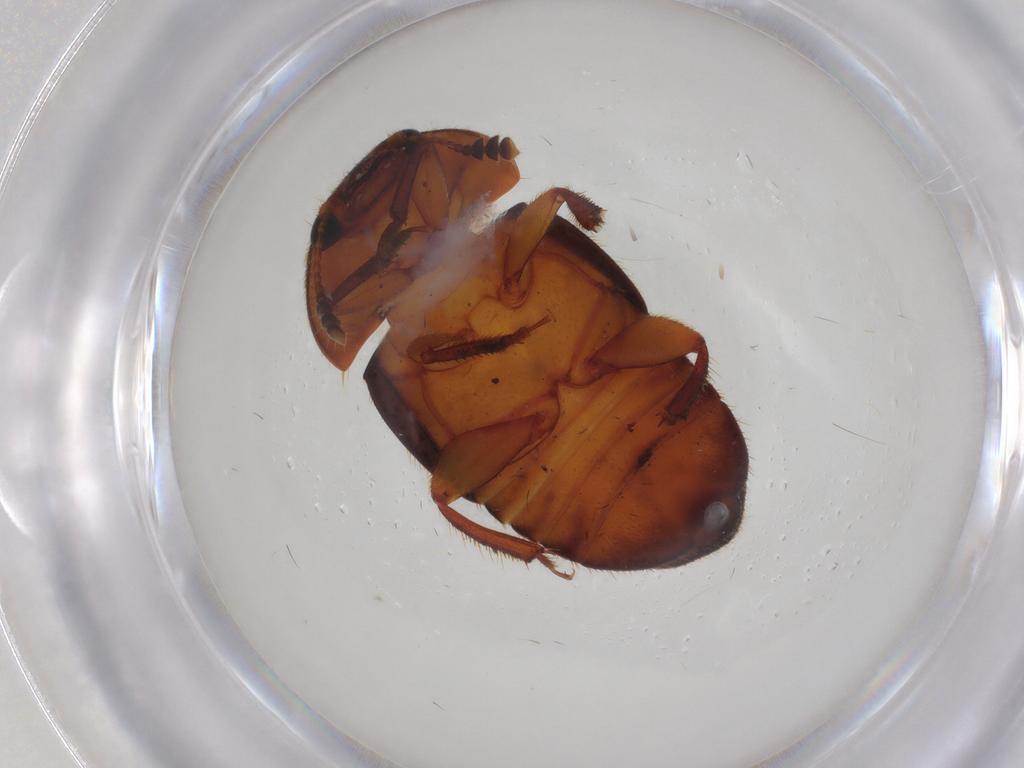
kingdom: Animalia
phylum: Arthropoda
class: Insecta
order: Coleoptera
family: Nitidulidae
